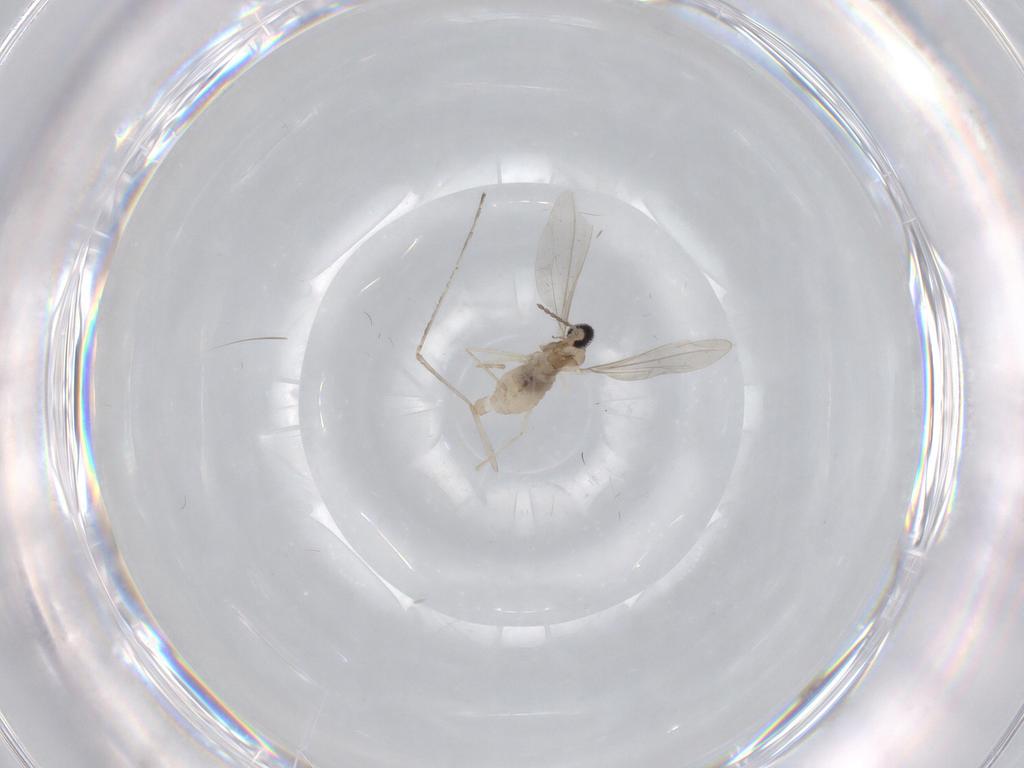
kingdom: Animalia
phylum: Arthropoda
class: Insecta
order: Diptera
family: Cecidomyiidae
